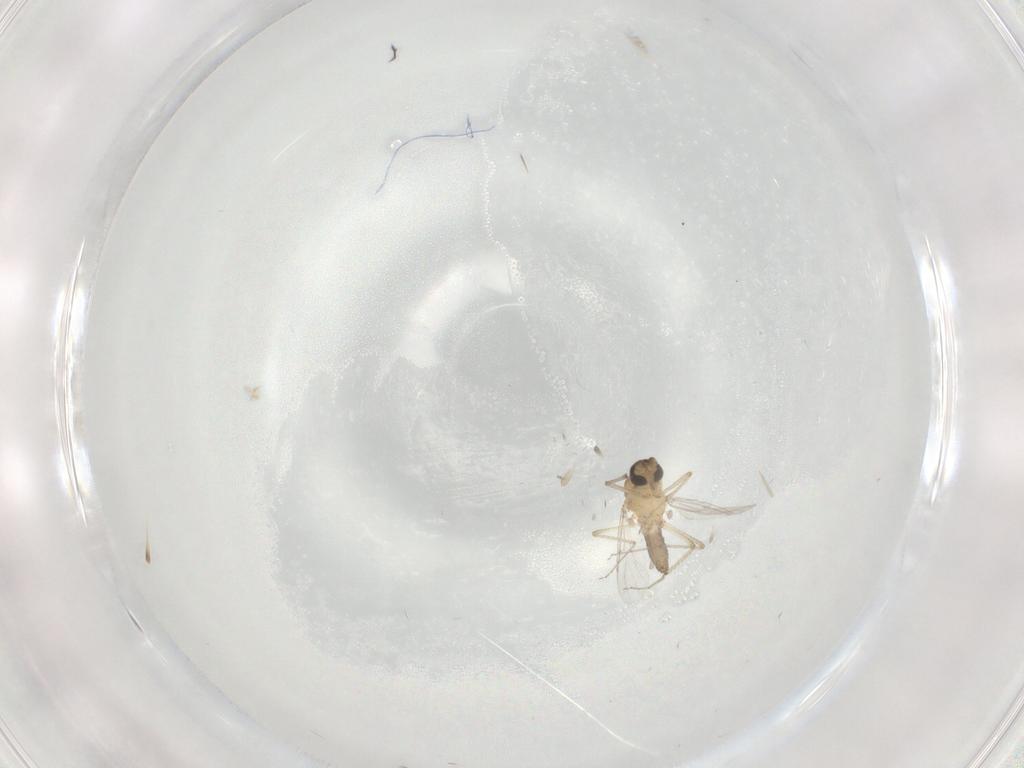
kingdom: Animalia
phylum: Arthropoda
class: Insecta
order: Diptera
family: Ceratopogonidae
